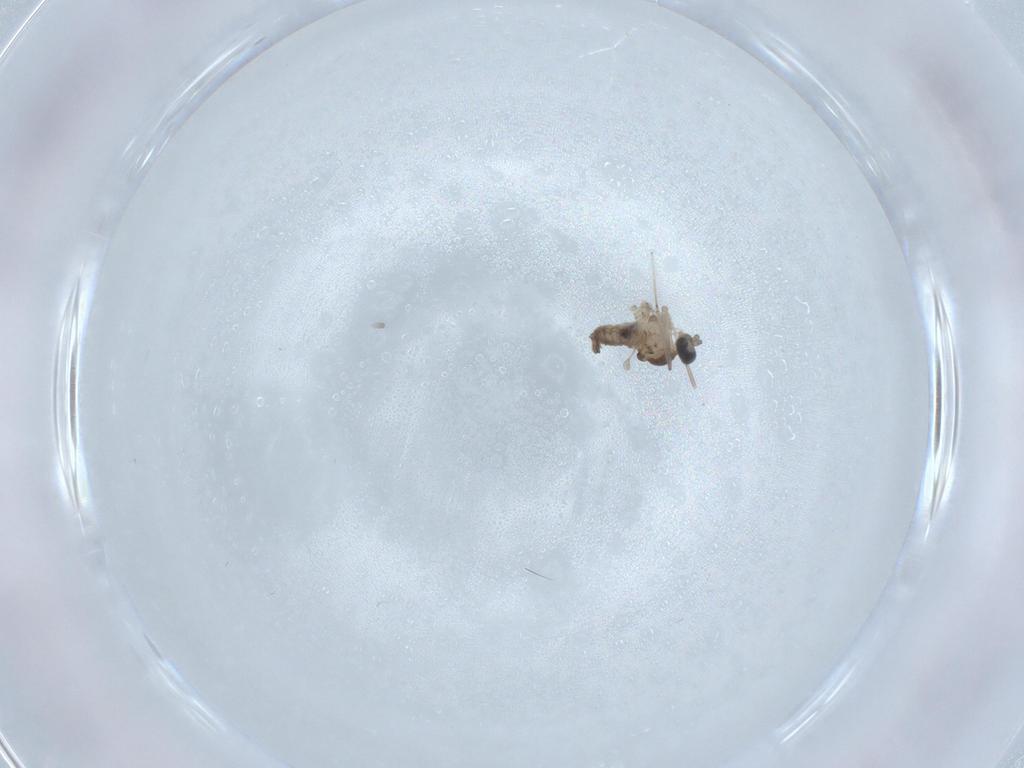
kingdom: Animalia
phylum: Arthropoda
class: Insecta
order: Diptera
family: Cecidomyiidae
